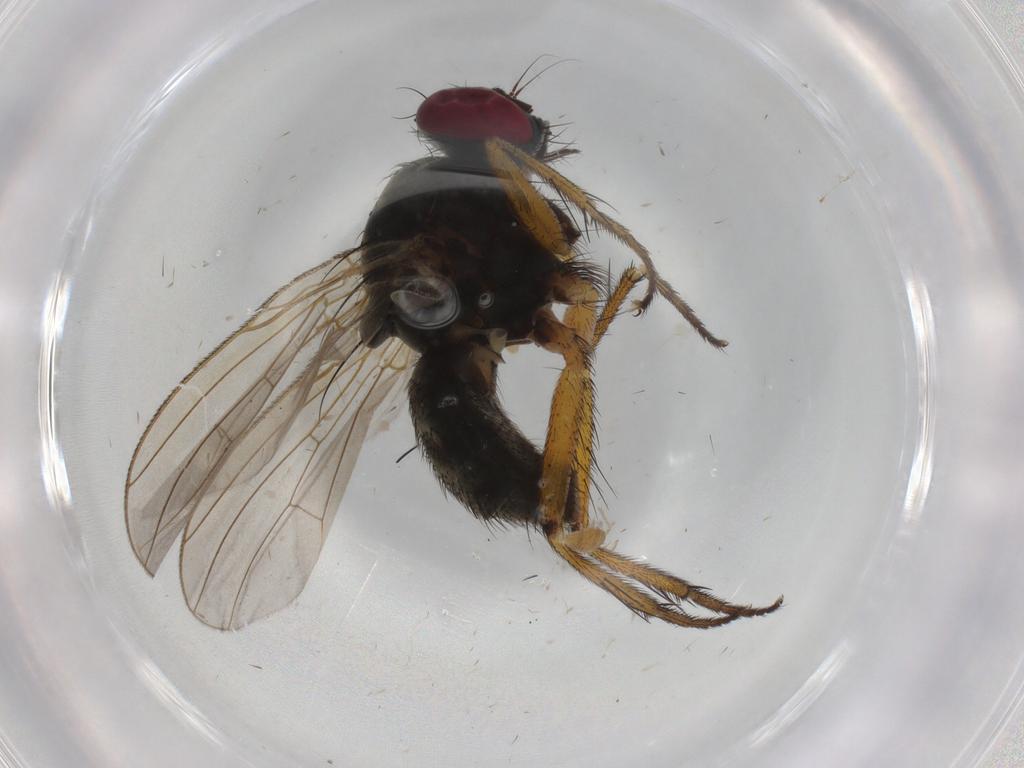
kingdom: Animalia
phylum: Arthropoda
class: Insecta
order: Diptera
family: Muscidae
